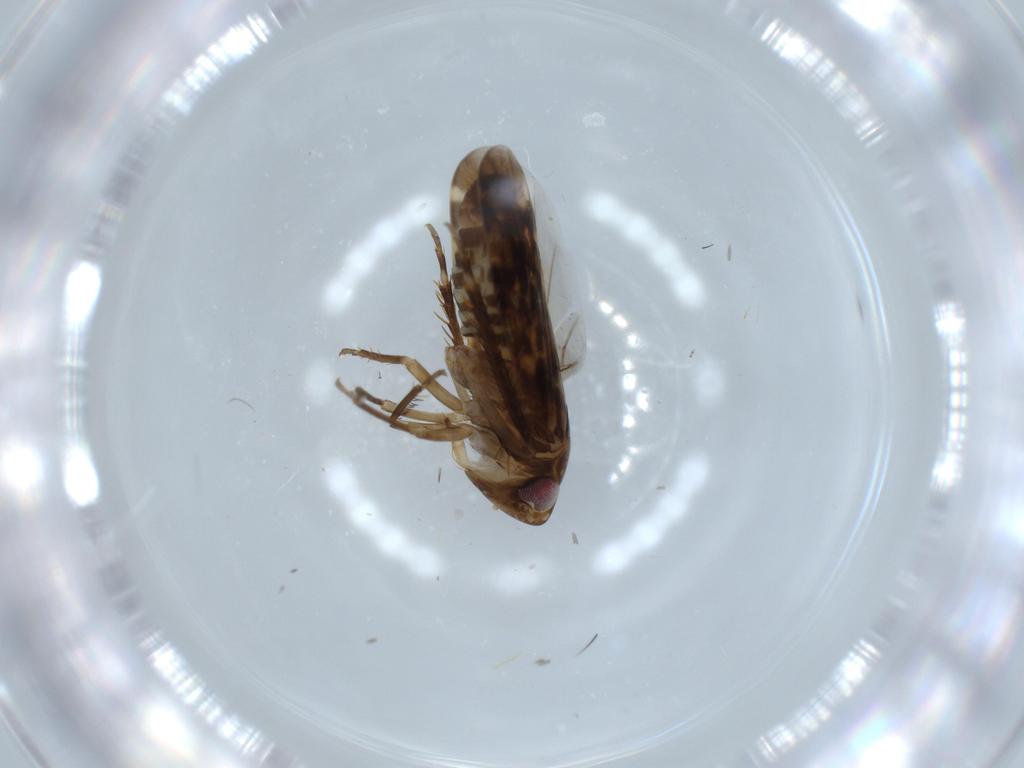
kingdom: Animalia
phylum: Arthropoda
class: Insecta
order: Hemiptera
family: Cicadellidae
